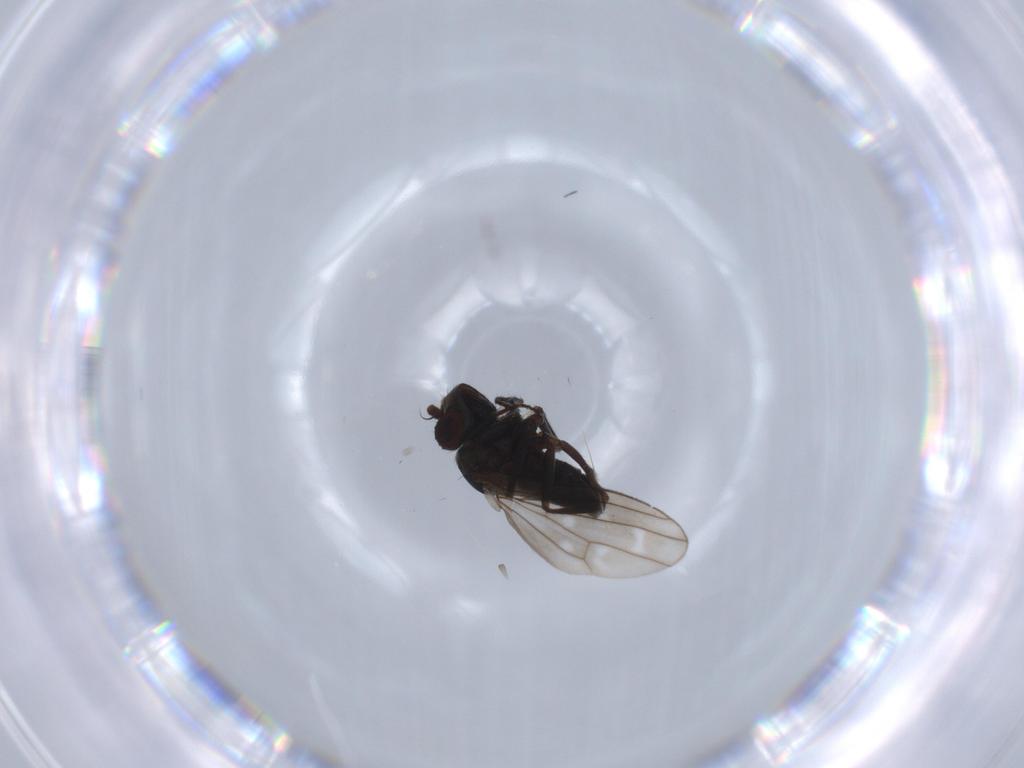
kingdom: Animalia
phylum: Arthropoda
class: Insecta
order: Diptera
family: Ephydridae
